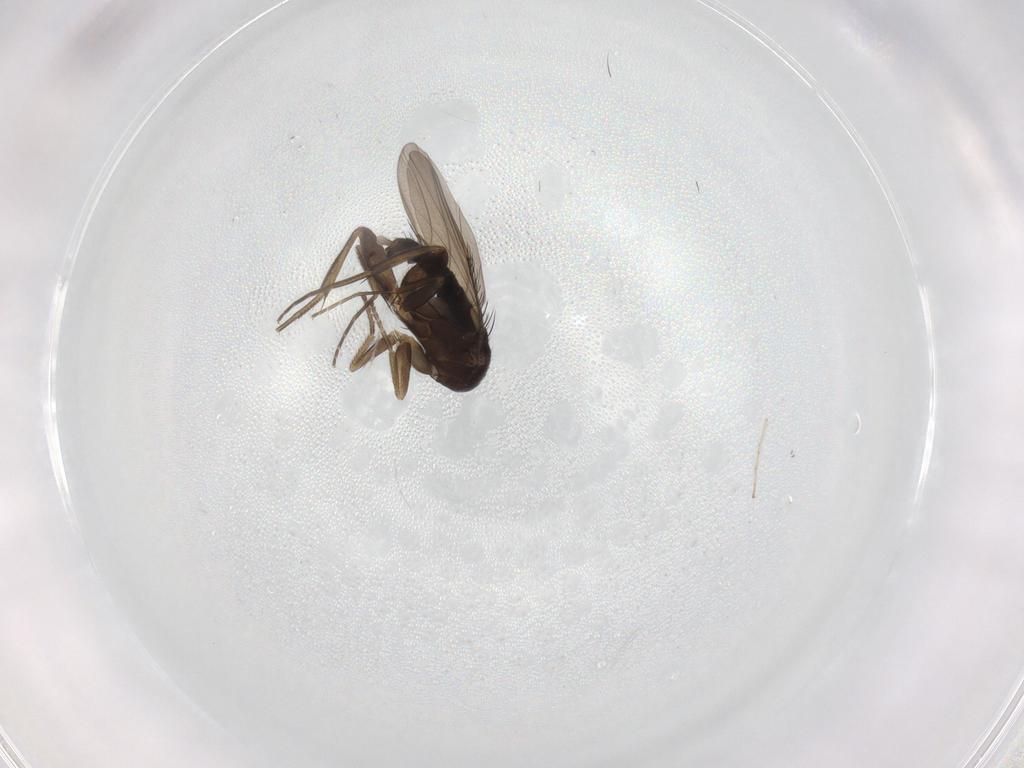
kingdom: Animalia
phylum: Arthropoda
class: Insecta
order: Diptera
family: Phoridae
